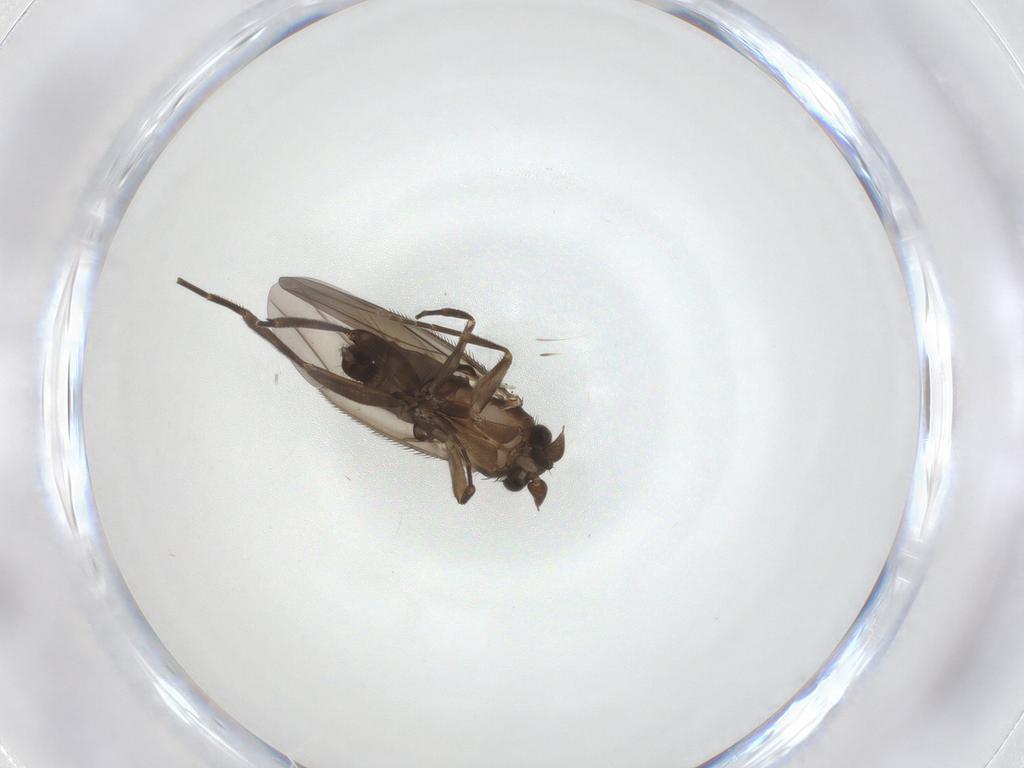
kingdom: Animalia
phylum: Arthropoda
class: Insecta
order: Diptera
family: Phoridae
